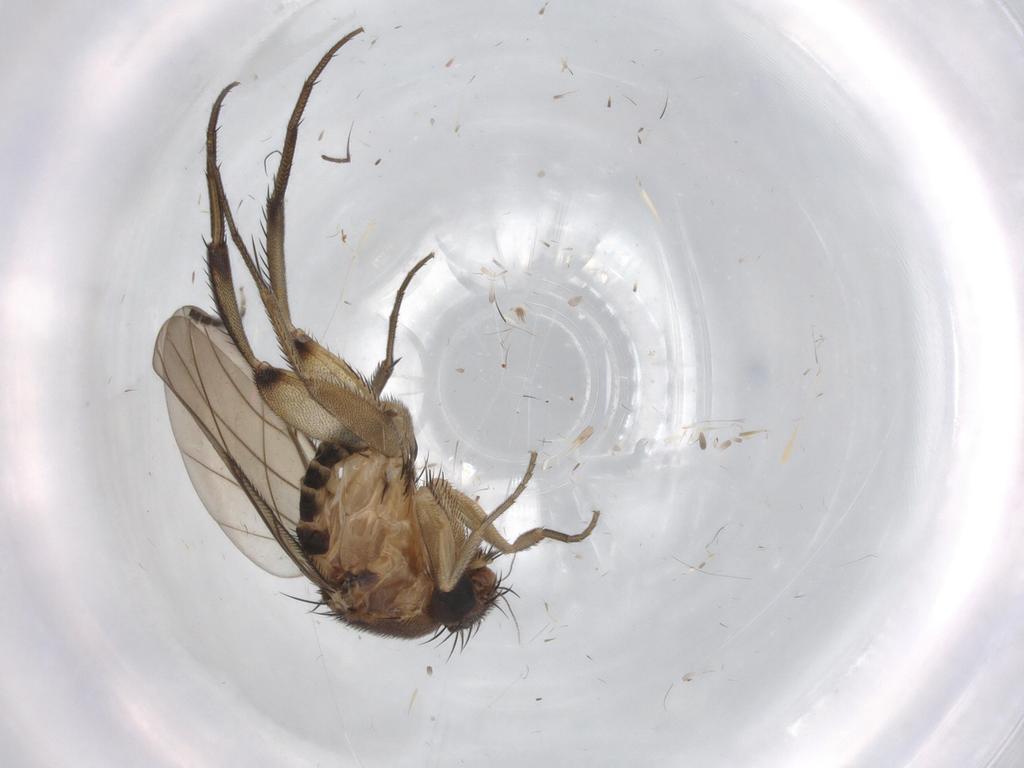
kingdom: Animalia
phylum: Arthropoda
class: Insecta
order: Diptera
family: Phoridae
